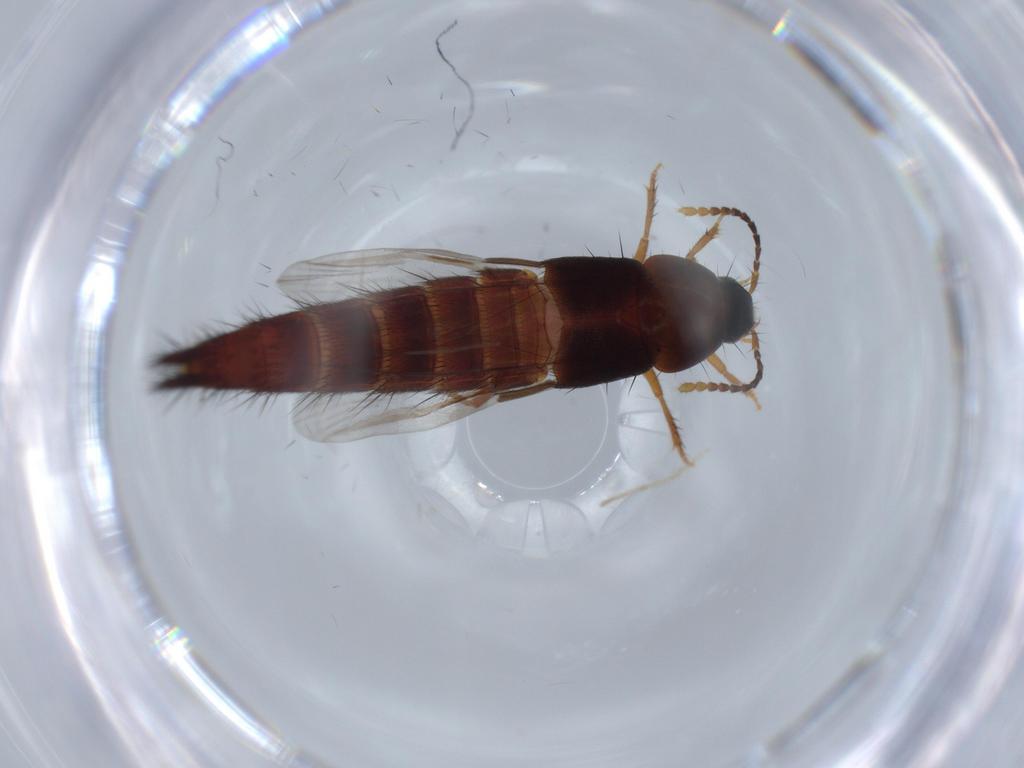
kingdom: Animalia
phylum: Arthropoda
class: Insecta
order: Coleoptera
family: Staphylinidae
